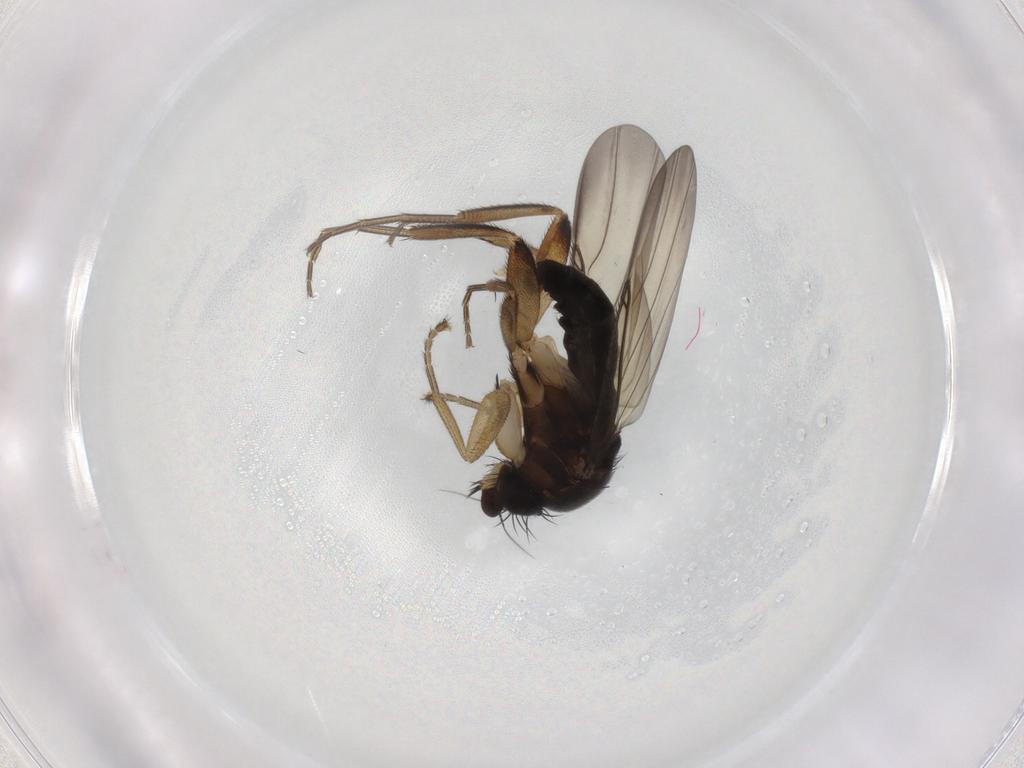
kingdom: Animalia
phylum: Arthropoda
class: Insecta
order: Diptera
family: Phoridae
